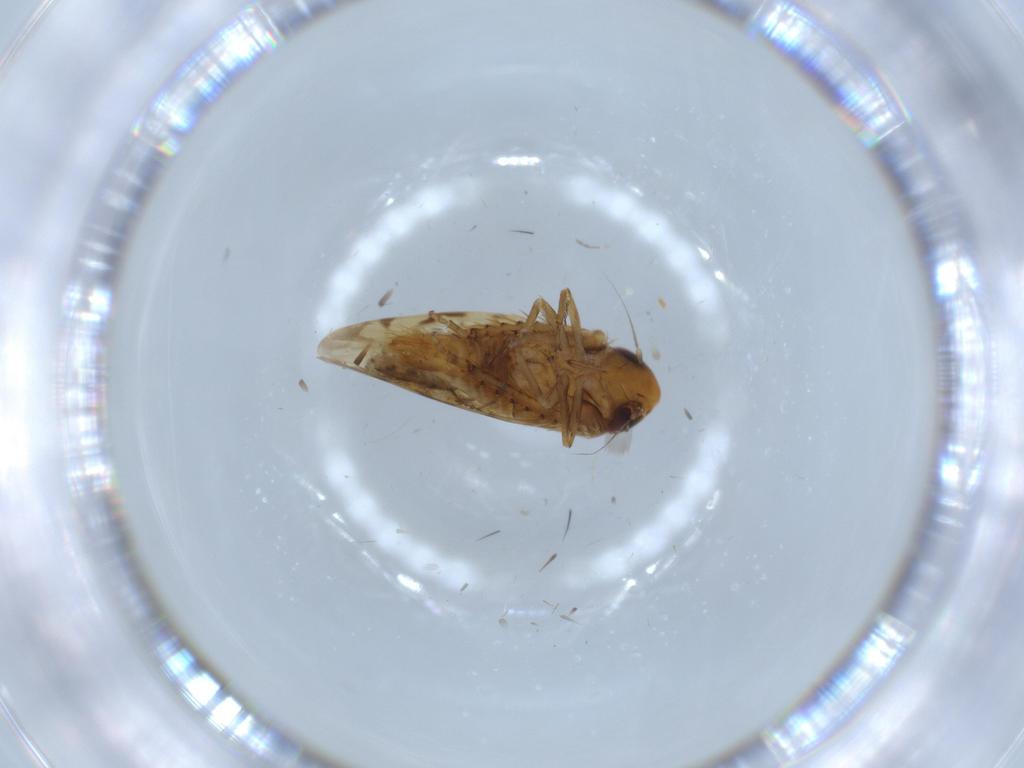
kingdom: Animalia
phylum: Arthropoda
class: Insecta
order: Hemiptera
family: Cicadellidae
